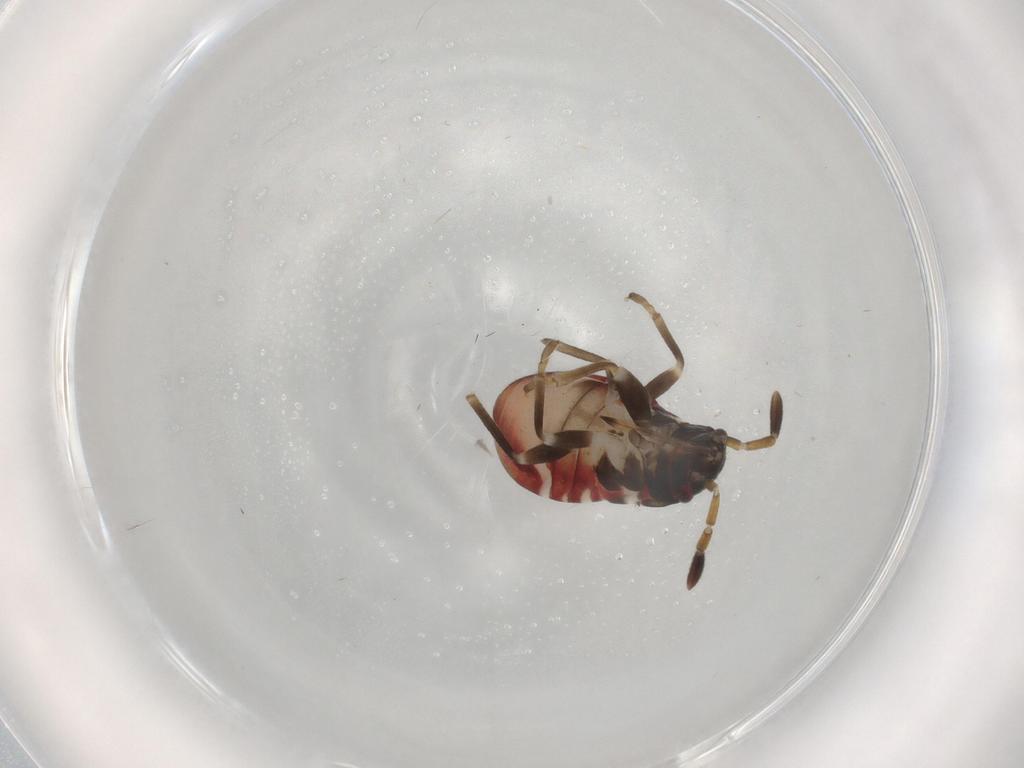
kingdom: Animalia
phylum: Arthropoda
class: Insecta
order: Hemiptera
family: Rhyparochromidae
